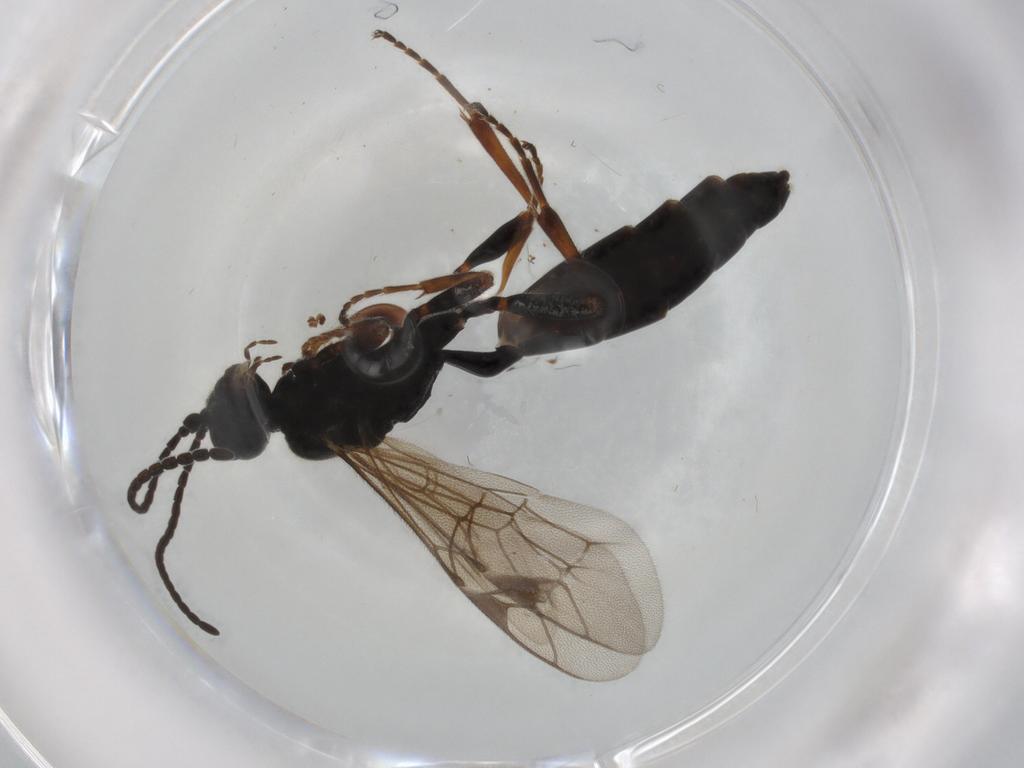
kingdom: Animalia
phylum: Arthropoda
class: Insecta
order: Hymenoptera
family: Ichneumonidae
